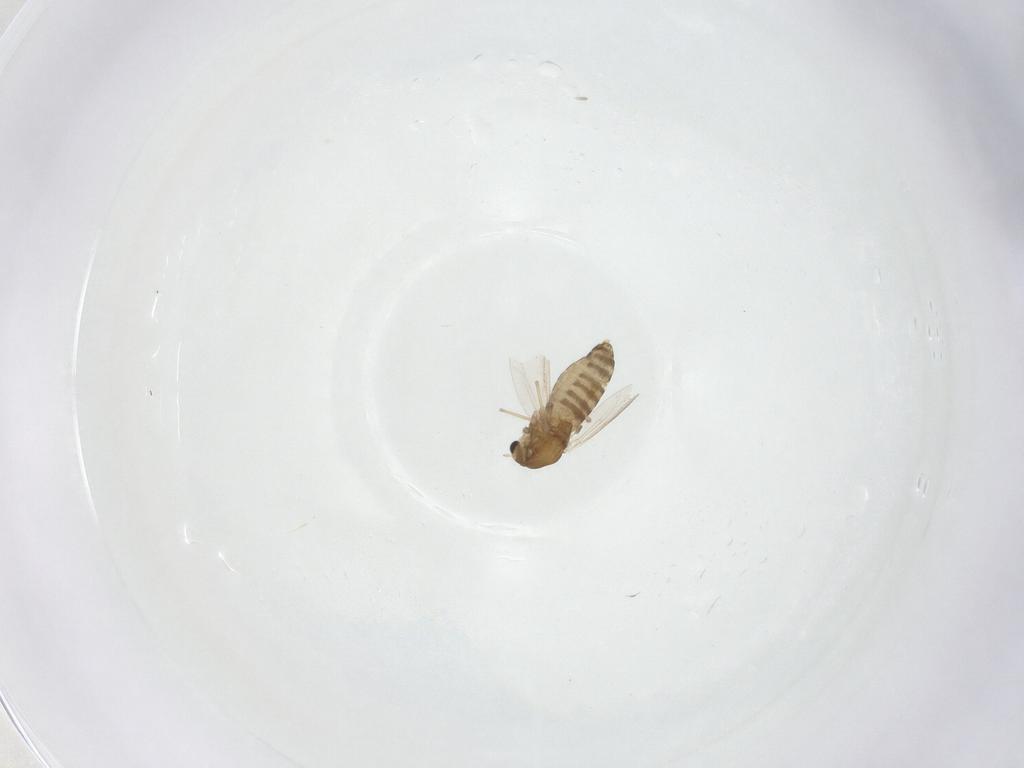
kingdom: Animalia
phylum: Arthropoda
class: Insecta
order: Diptera
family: Chironomidae
